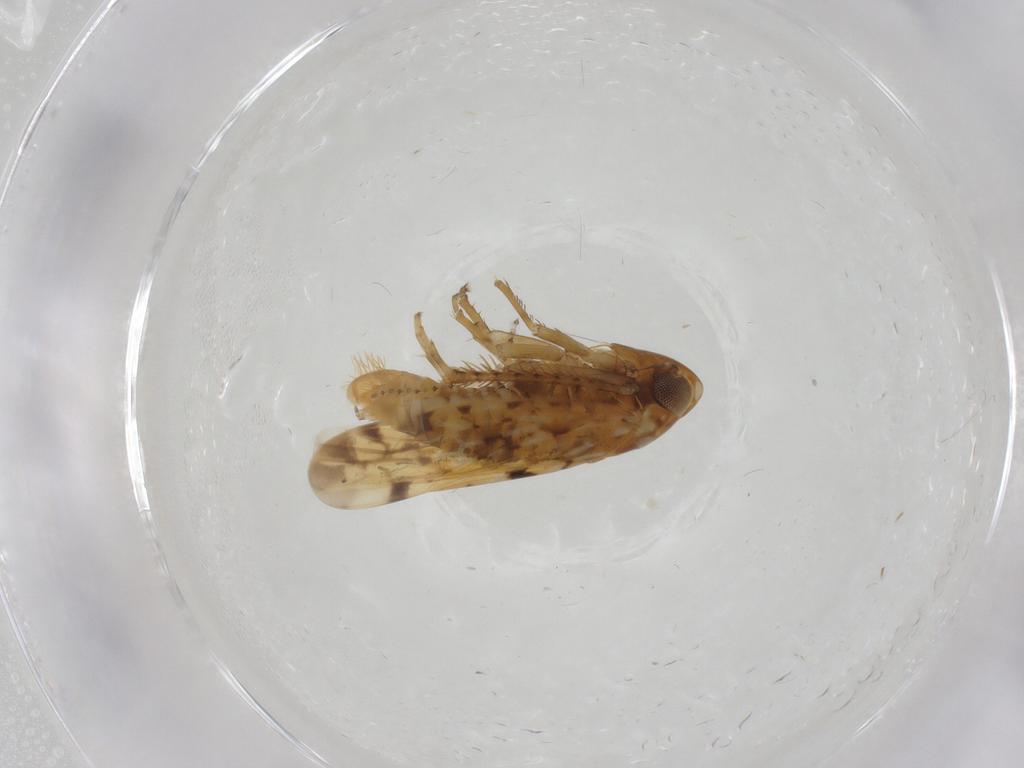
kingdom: Animalia
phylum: Arthropoda
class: Insecta
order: Hemiptera
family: Cicadellidae
